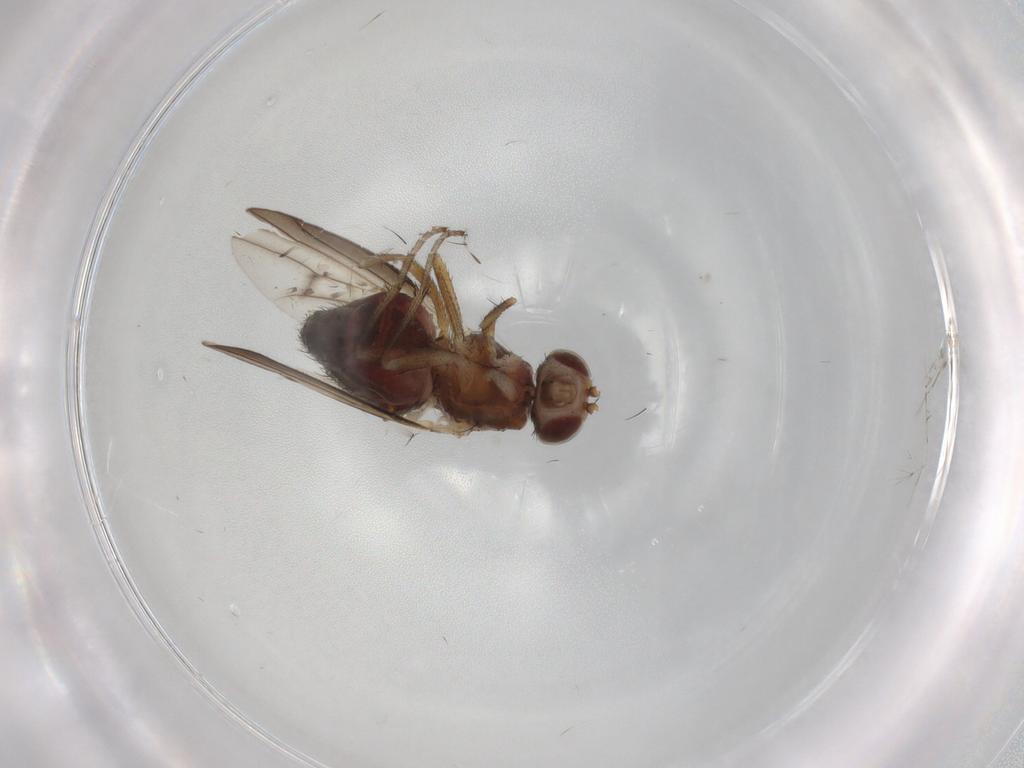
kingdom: Animalia
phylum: Arthropoda
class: Insecta
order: Diptera
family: Heleomyzidae
